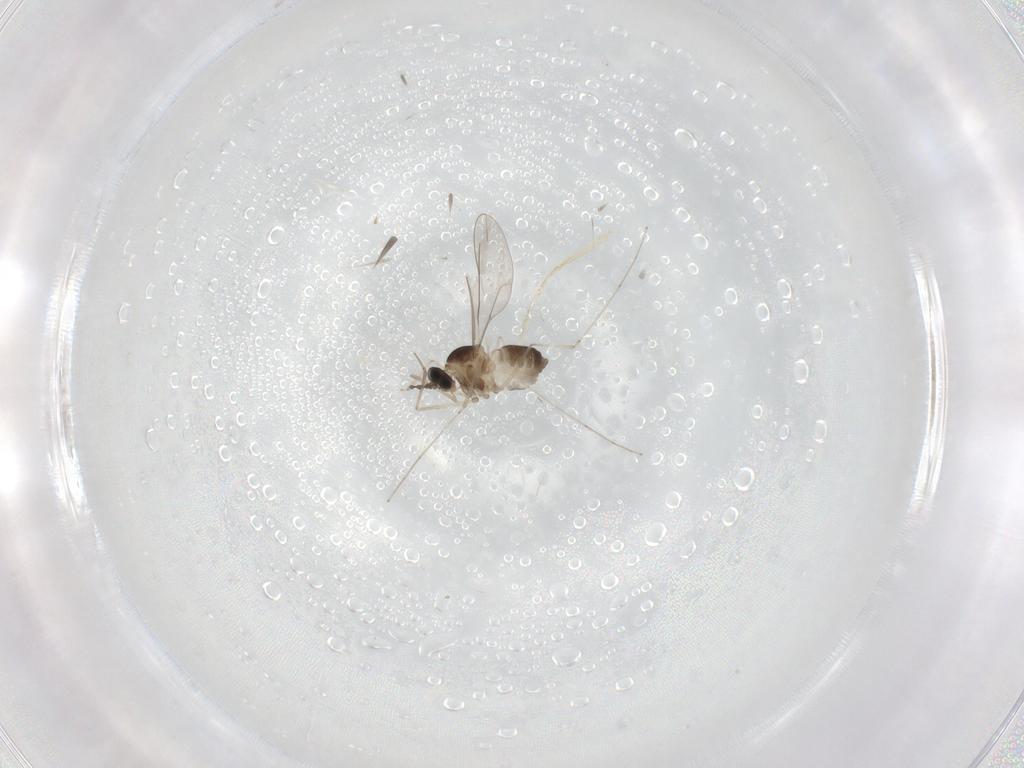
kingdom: Animalia
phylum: Arthropoda
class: Insecta
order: Diptera
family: Cecidomyiidae
